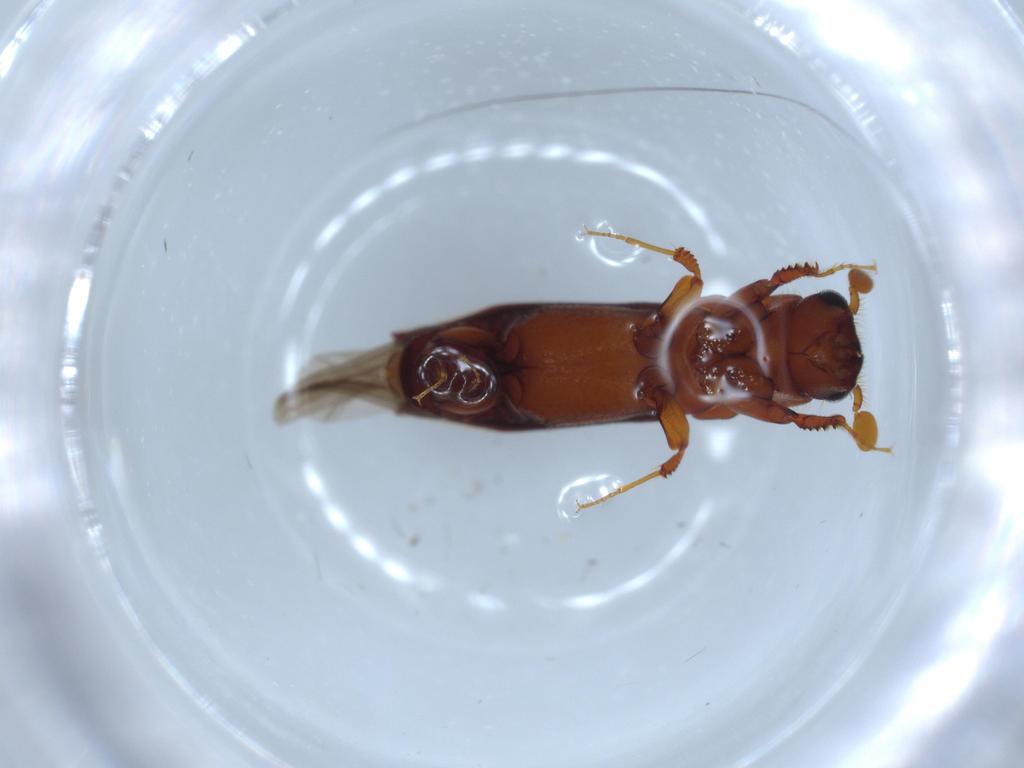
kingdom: Animalia
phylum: Arthropoda
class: Insecta
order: Coleoptera
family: Curculionidae
